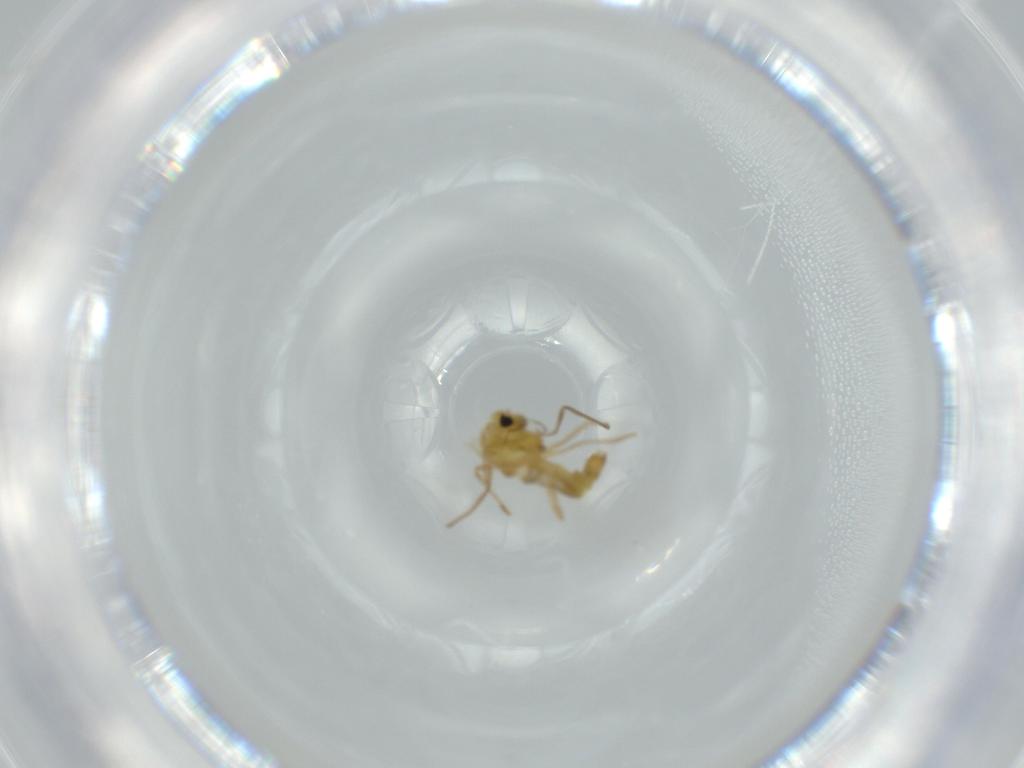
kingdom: Animalia
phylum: Arthropoda
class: Insecta
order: Diptera
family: Chironomidae
